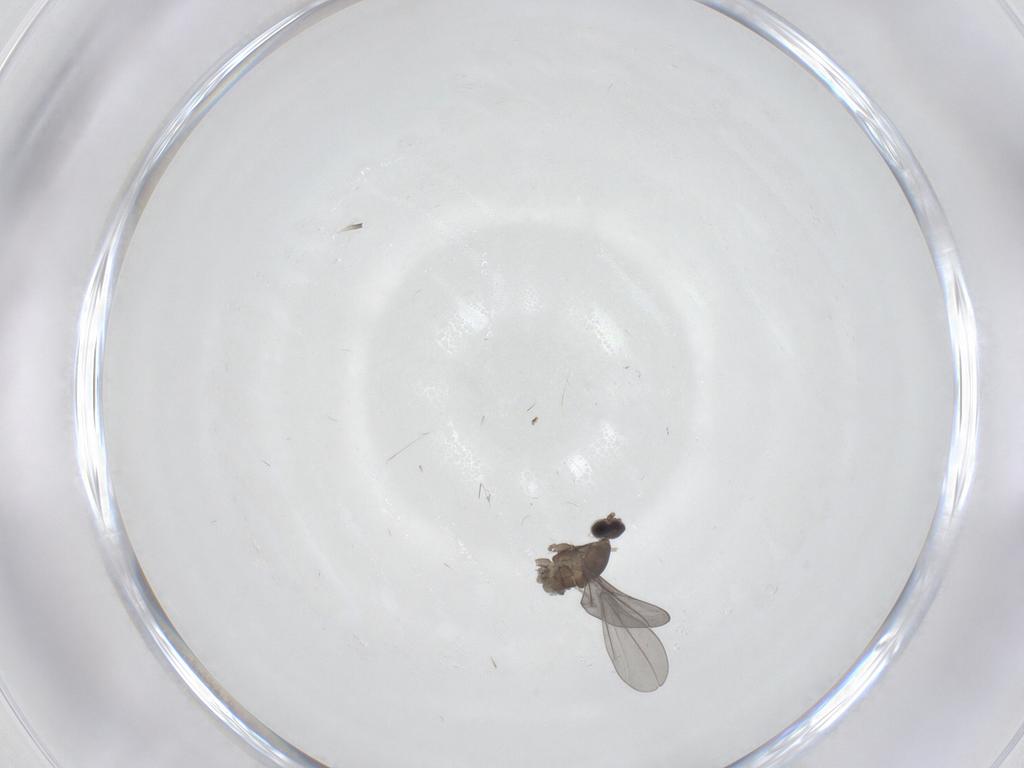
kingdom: Animalia
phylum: Arthropoda
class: Insecta
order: Diptera
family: Cecidomyiidae
